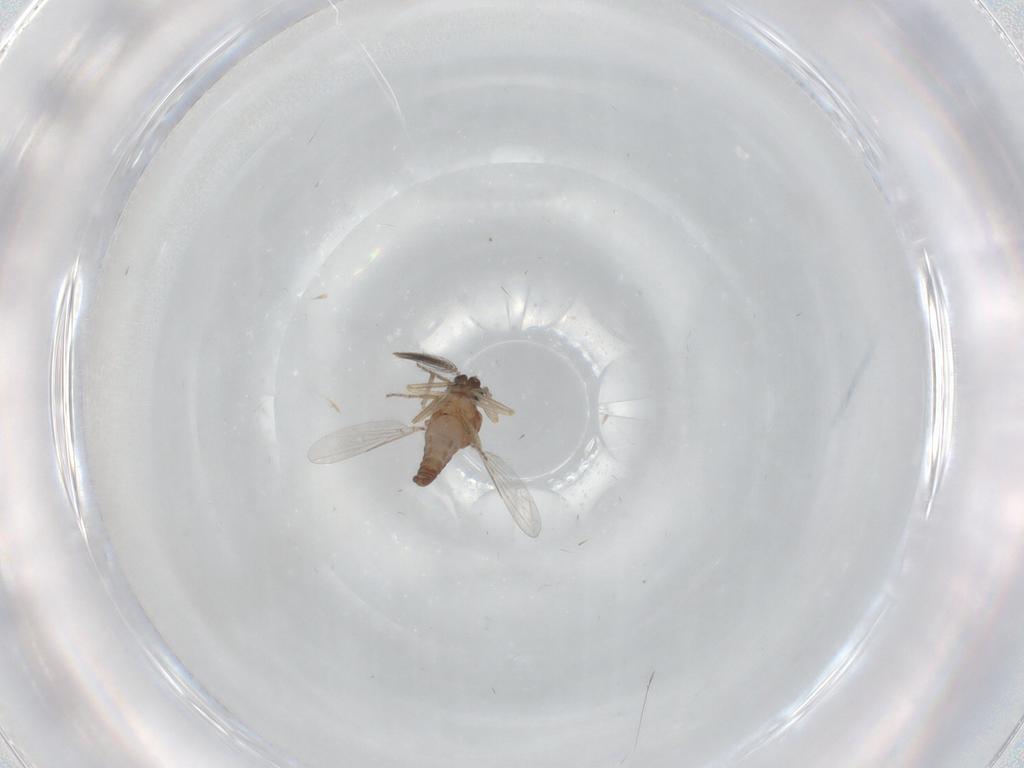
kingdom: Animalia
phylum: Arthropoda
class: Insecta
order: Diptera
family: Ceratopogonidae
